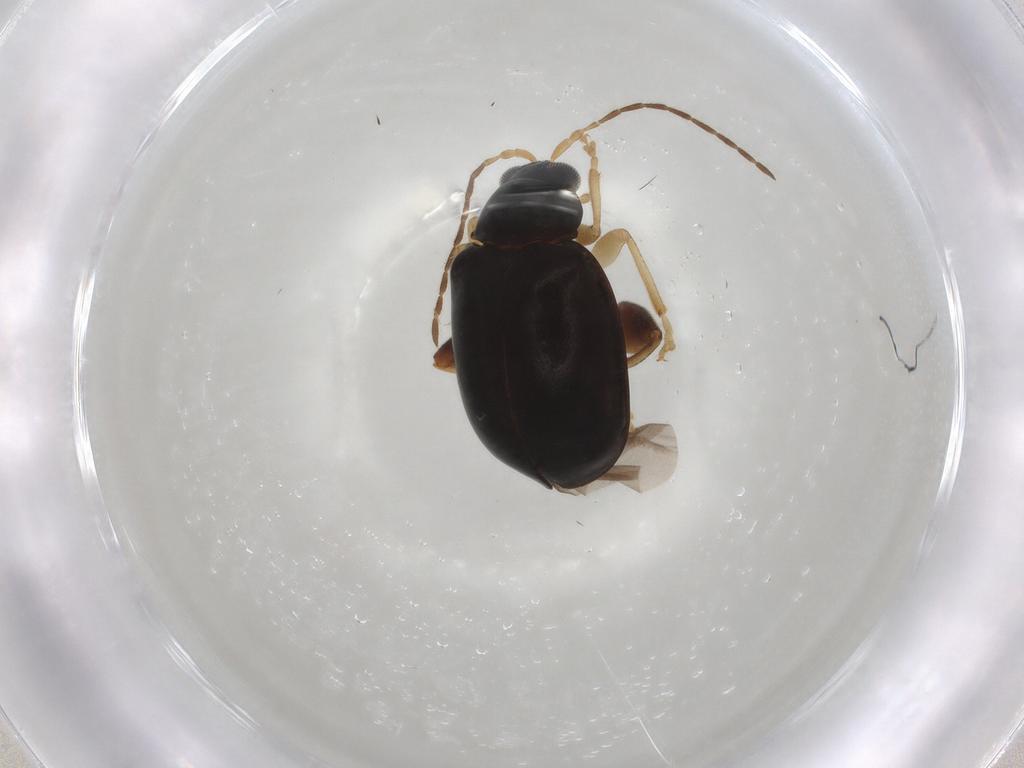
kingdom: Animalia
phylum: Arthropoda
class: Insecta
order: Coleoptera
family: Chrysomelidae
